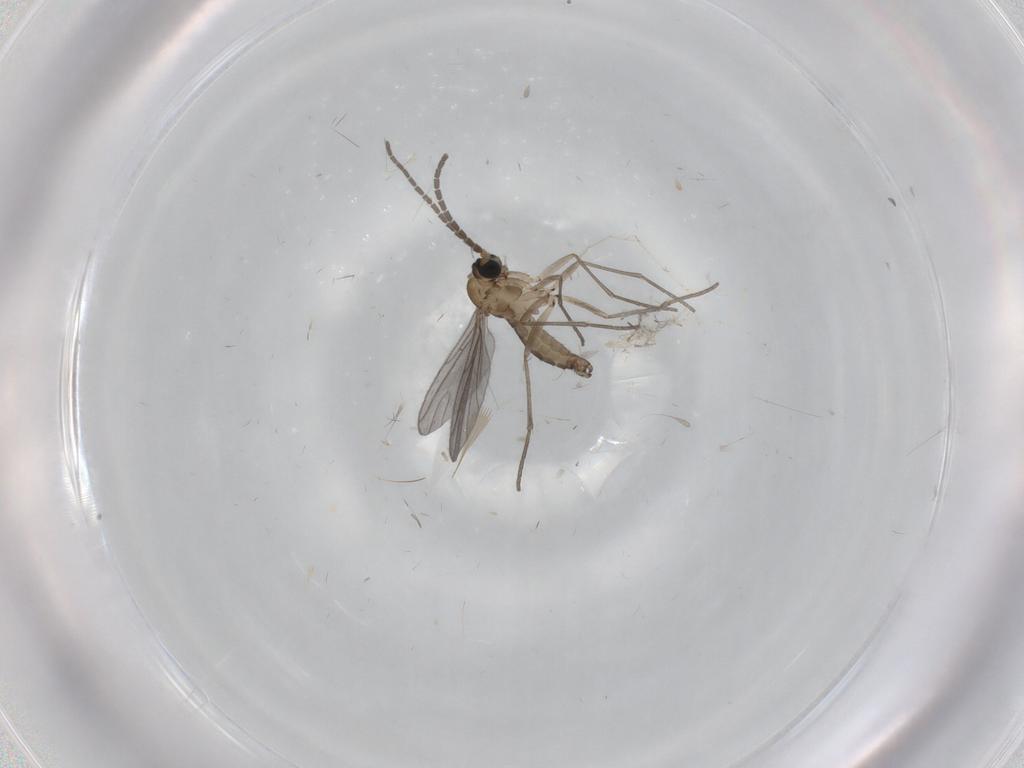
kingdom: Animalia
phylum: Arthropoda
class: Insecta
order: Diptera
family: Sciaridae
